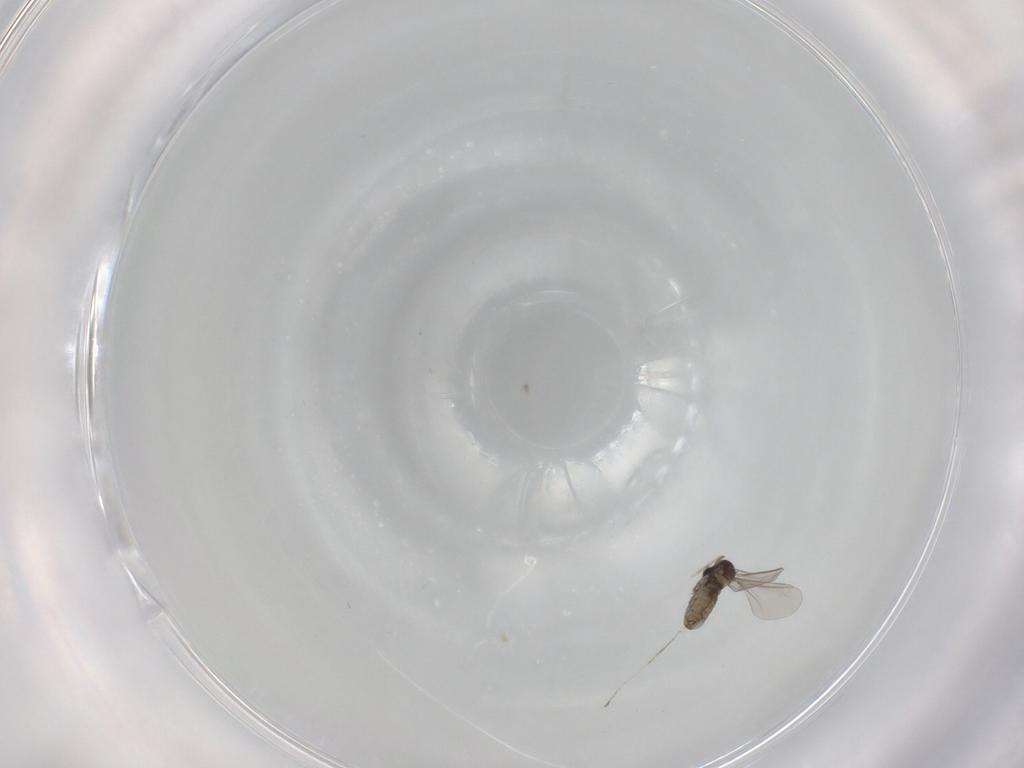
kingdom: Animalia
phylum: Arthropoda
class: Insecta
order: Diptera
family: Cecidomyiidae
